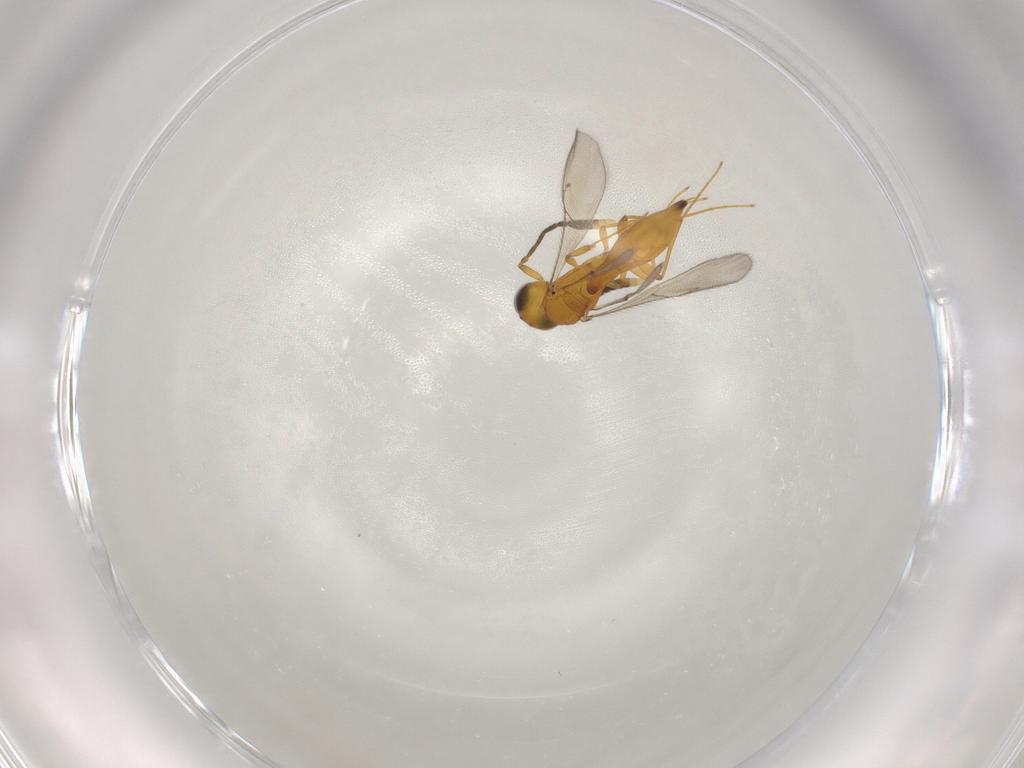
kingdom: Animalia
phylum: Arthropoda
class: Insecta
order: Hymenoptera
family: Scelionidae
